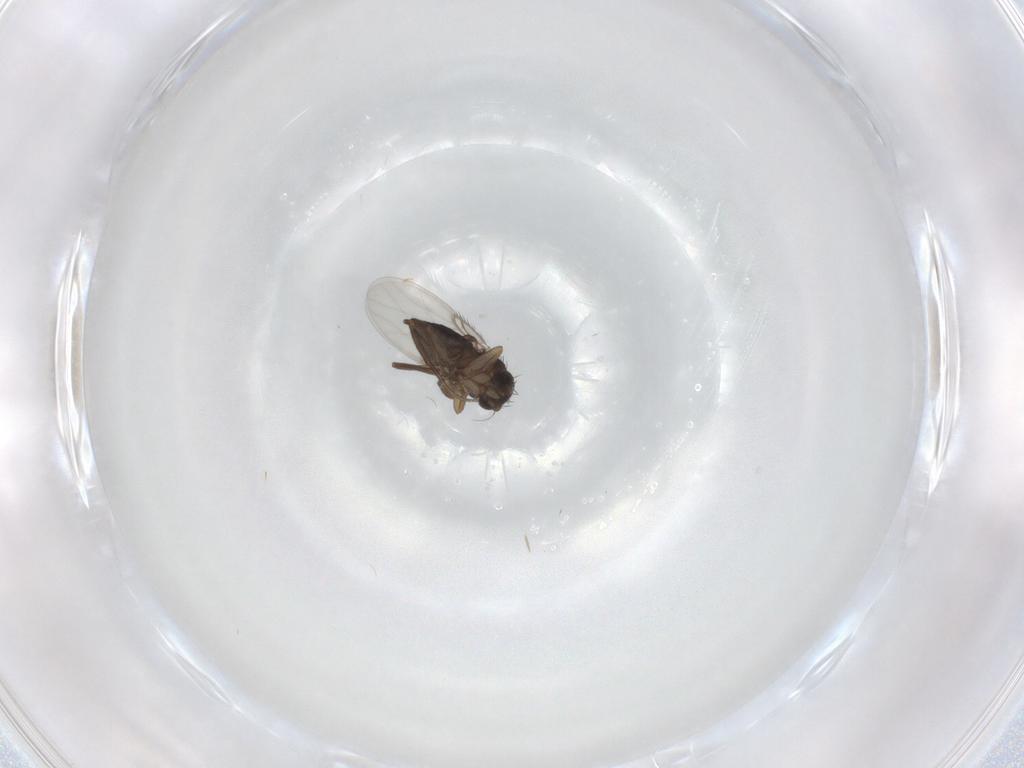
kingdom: Animalia
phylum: Arthropoda
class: Insecta
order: Diptera
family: Phoridae
